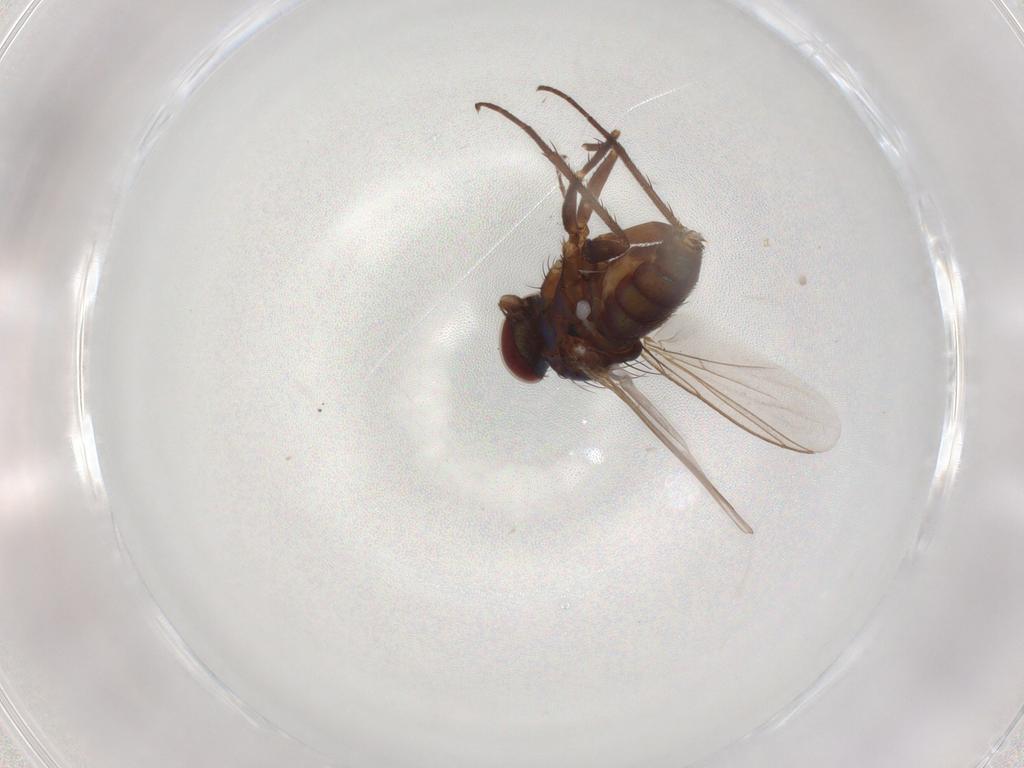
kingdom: Animalia
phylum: Arthropoda
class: Insecta
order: Diptera
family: Dolichopodidae
